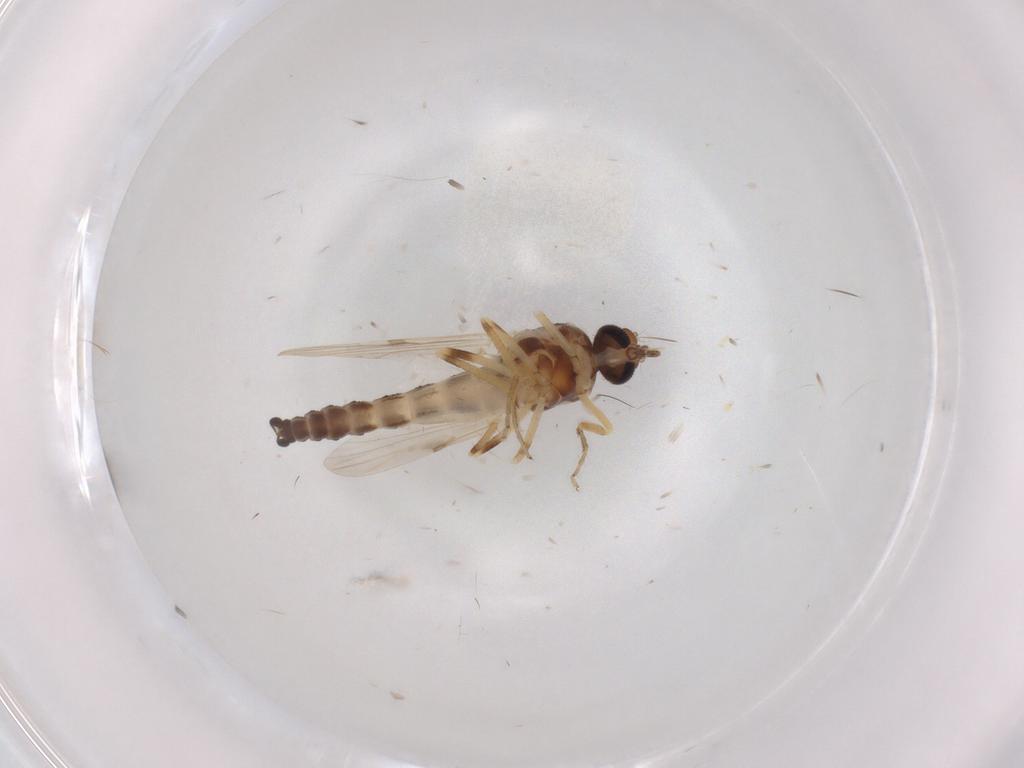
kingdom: Animalia
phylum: Arthropoda
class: Insecta
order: Diptera
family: Ceratopogonidae
